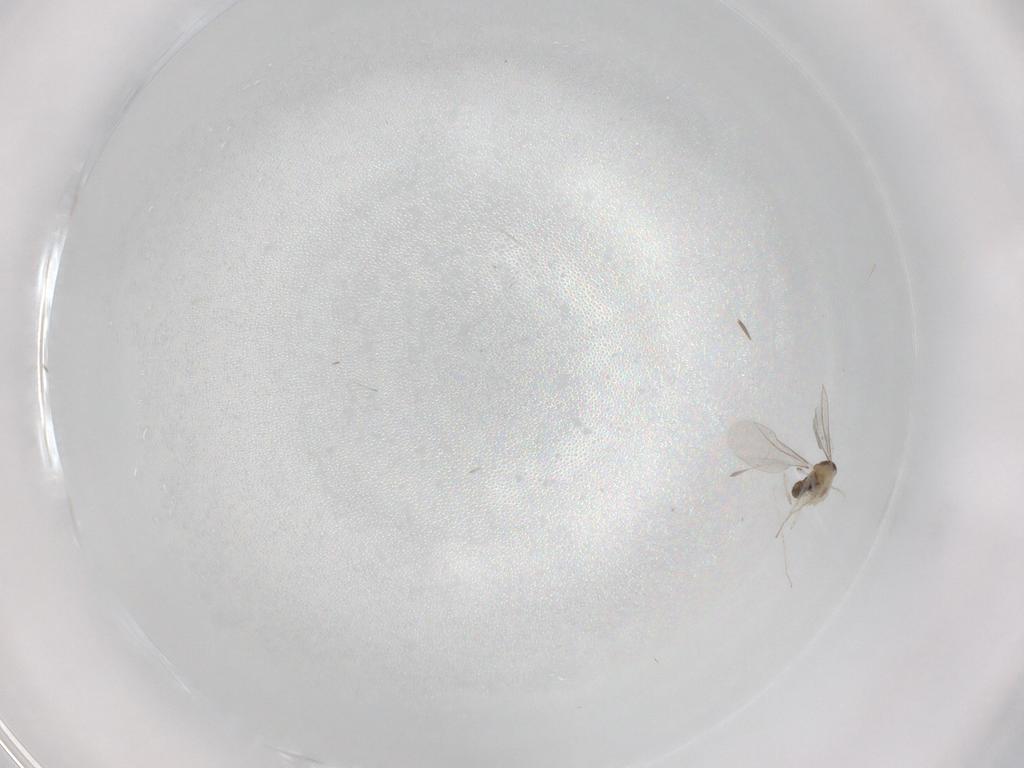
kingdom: Animalia
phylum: Arthropoda
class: Insecta
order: Diptera
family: Cecidomyiidae
